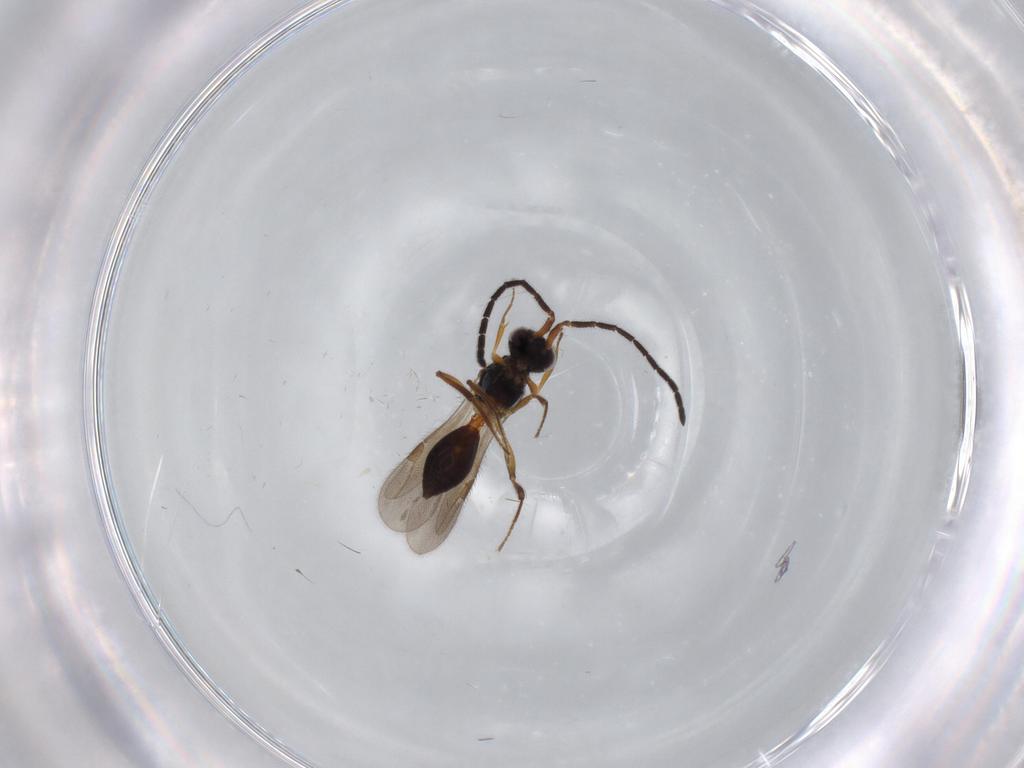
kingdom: Animalia
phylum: Arthropoda
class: Insecta
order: Hymenoptera
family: Megaspilidae
